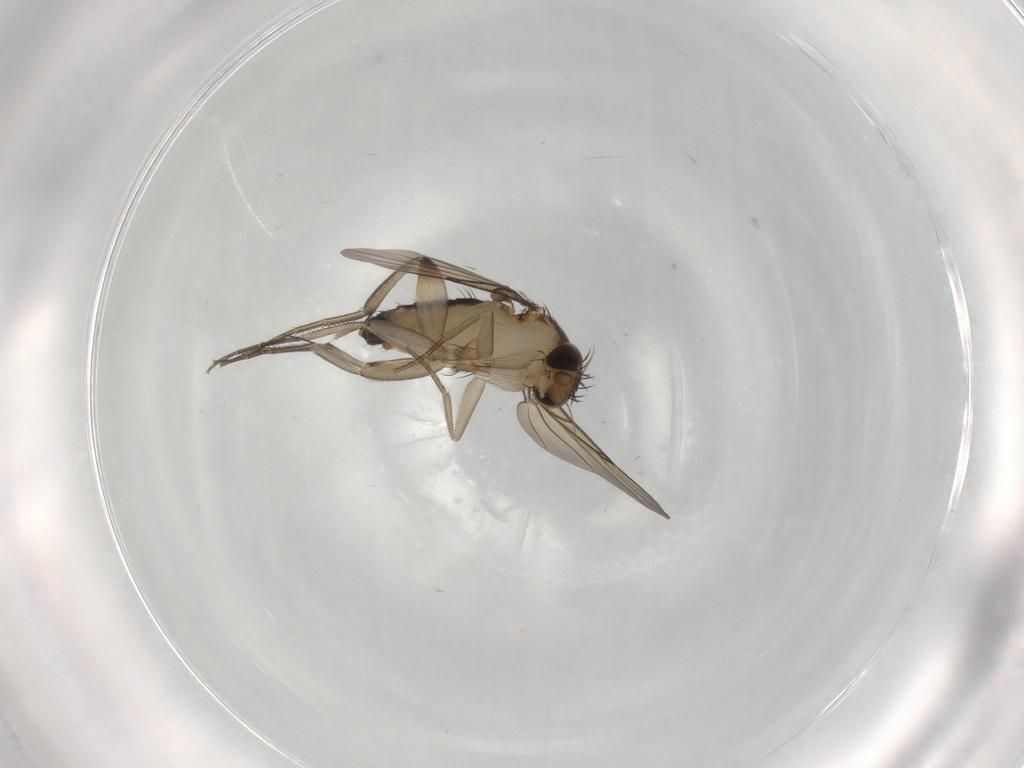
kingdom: Animalia
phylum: Arthropoda
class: Insecta
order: Diptera
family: Phoridae
